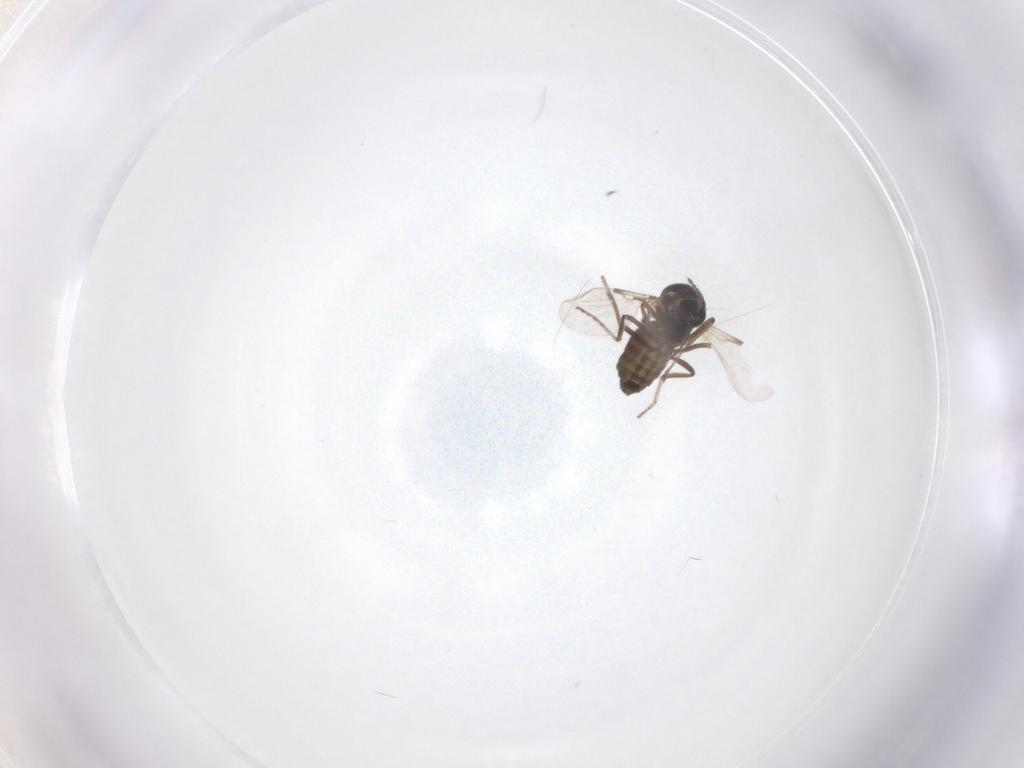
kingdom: Animalia
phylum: Arthropoda
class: Insecta
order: Diptera
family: Ceratopogonidae
